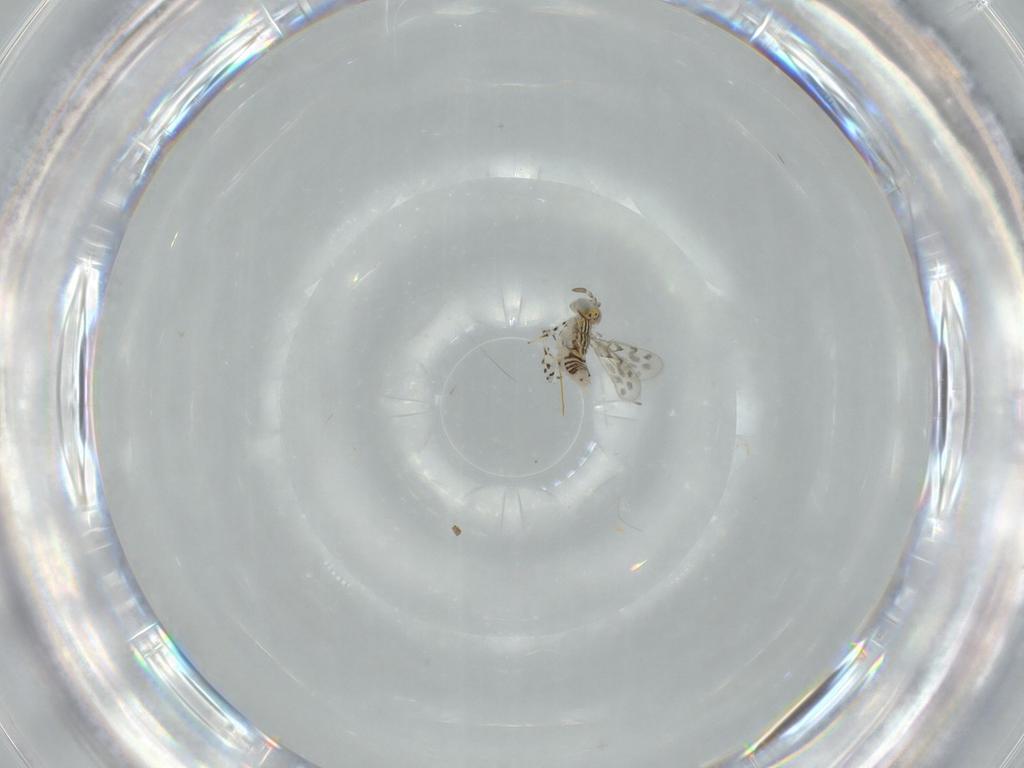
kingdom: Animalia
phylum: Arthropoda
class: Insecta
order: Hymenoptera
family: Aphelinidae
